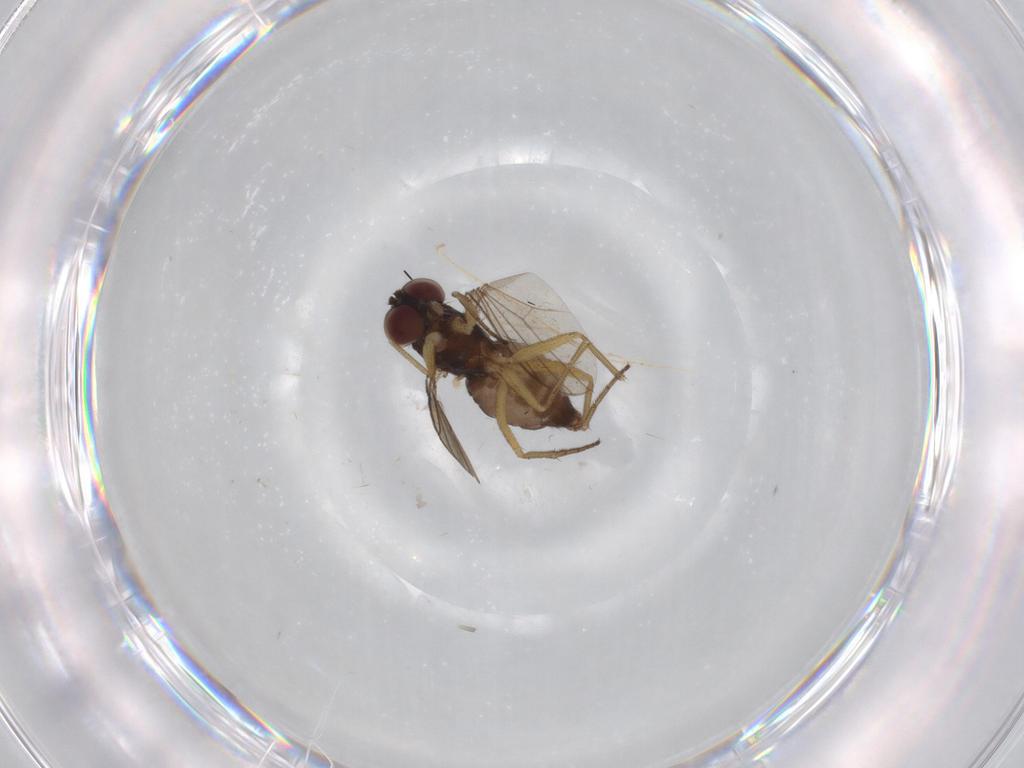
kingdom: Animalia
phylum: Arthropoda
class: Insecta
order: Diptera
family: Dolichopodidae
